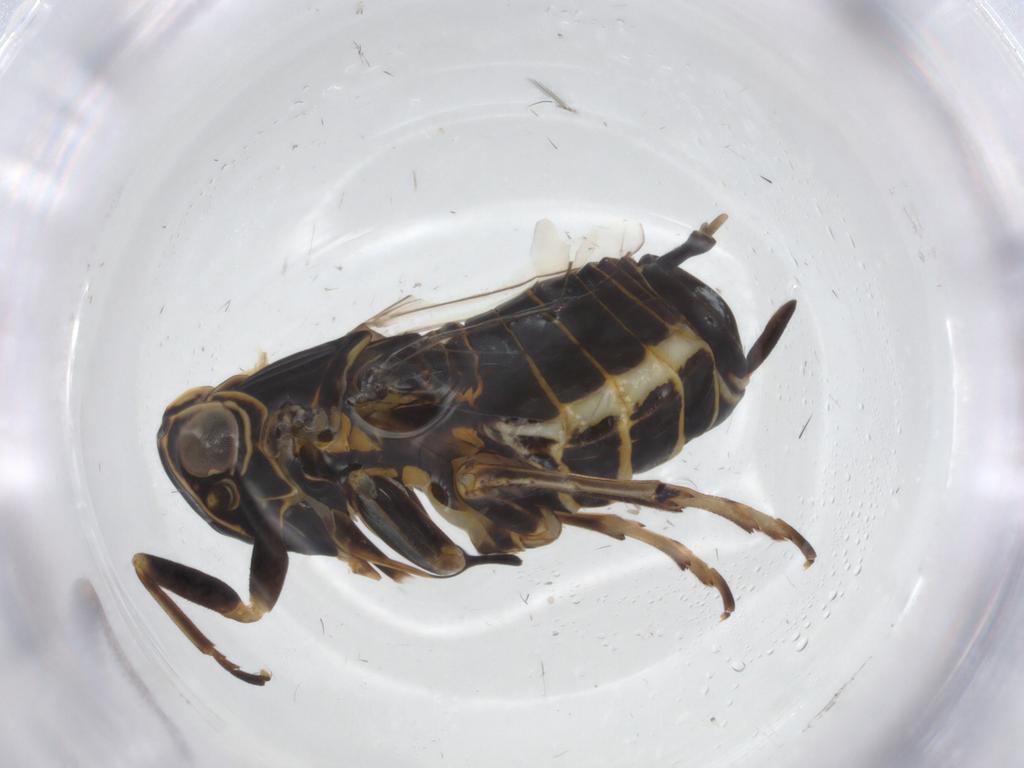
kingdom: Animalia
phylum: Arthropoda
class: Insecta
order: Hemiptera
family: Cixiidae
